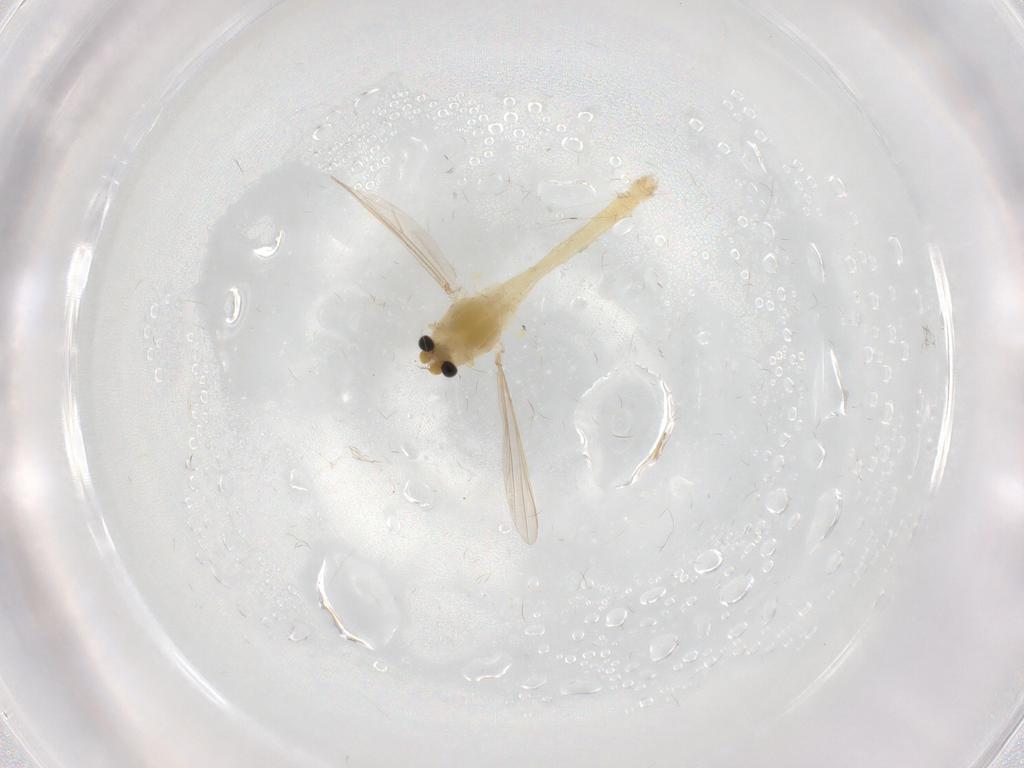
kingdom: Animalia
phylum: Arthropoda
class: Insecta
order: Diptera
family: Chironomidae
